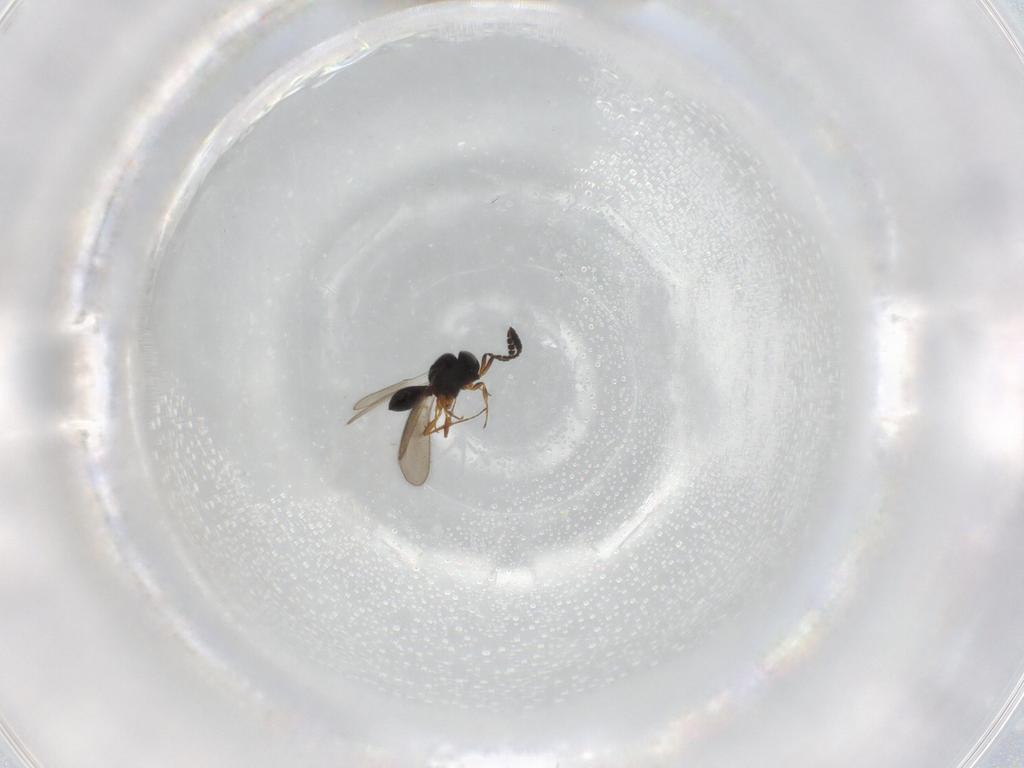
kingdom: Animalia
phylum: Arthropoda
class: Insecta
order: Hymenoptera
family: Scelionidae
